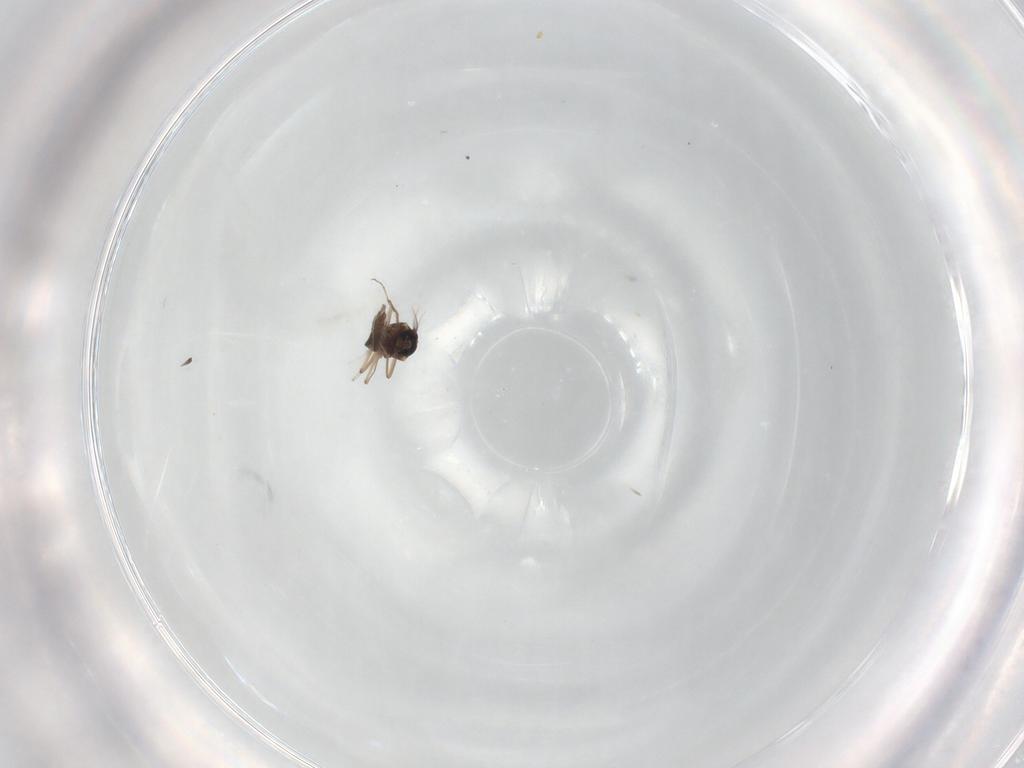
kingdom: Animalia
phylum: Arthropoda
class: Insecta
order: Diptera
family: Ceratopogonidae
